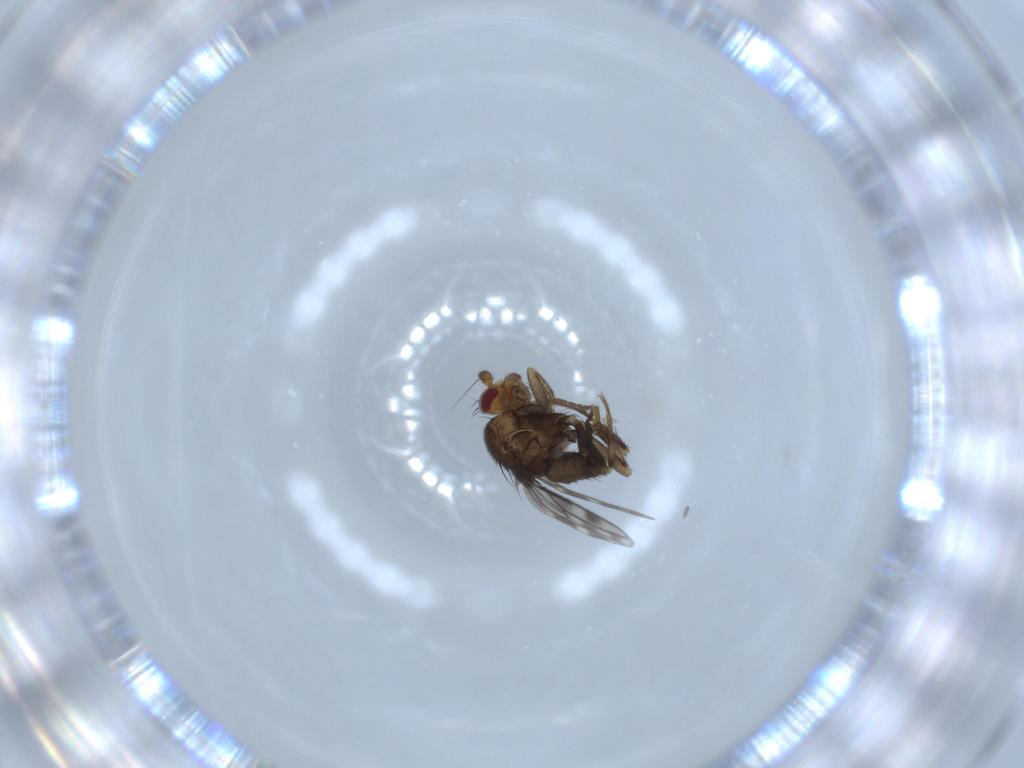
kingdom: Animalia
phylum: Arthropoda
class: Insecta
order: Diptera
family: Sphaeroceridae
